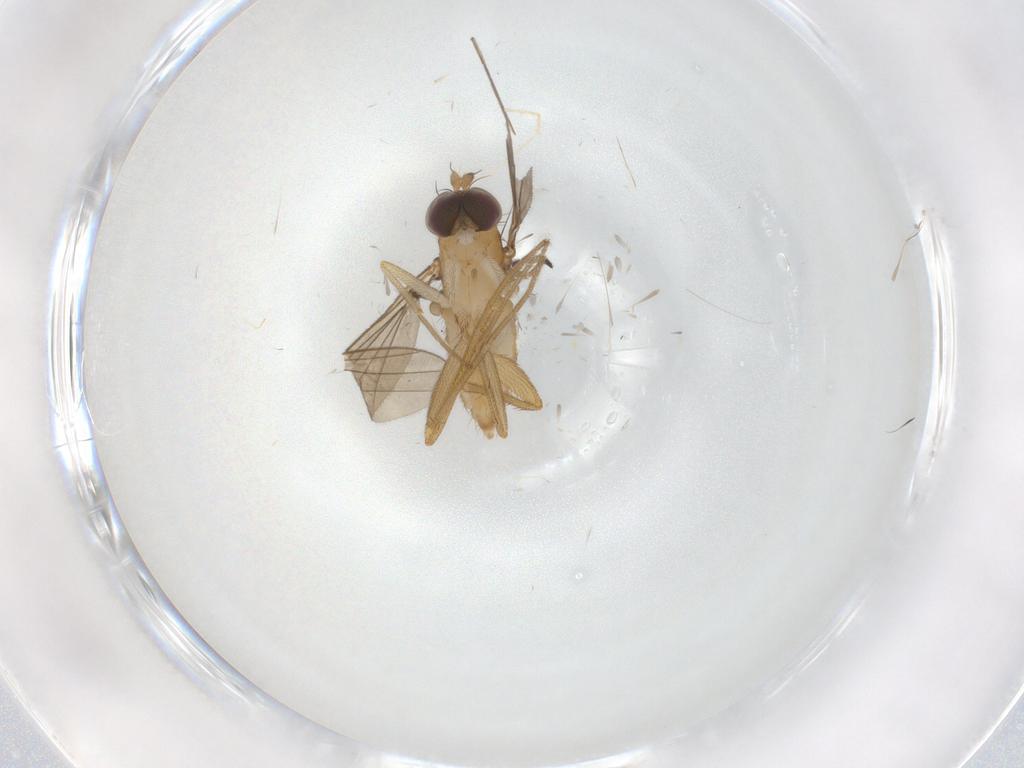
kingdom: Animalia
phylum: Arthropoda
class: Insecta
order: Diptera
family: Dolichopodidae
